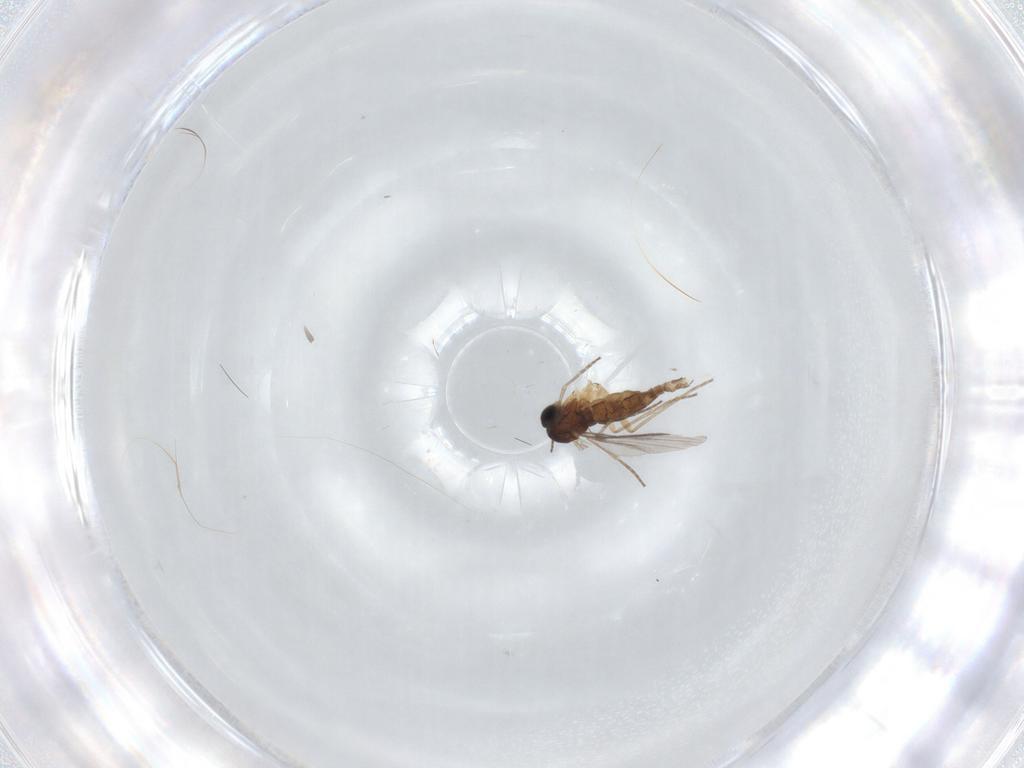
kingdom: Animalia
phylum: Arthropoda
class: Insecta
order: Diptera
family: Sciaridae
